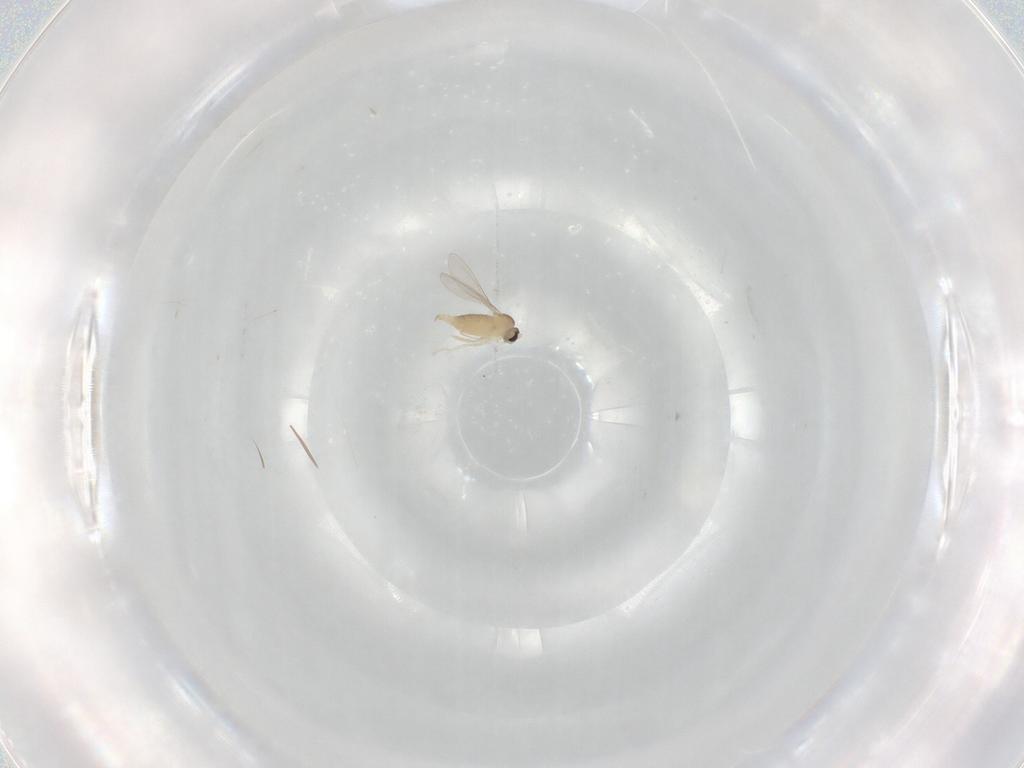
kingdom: Animalia
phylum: Arthropoda
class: Insecta
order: Diptera
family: Cecidomyiidae
